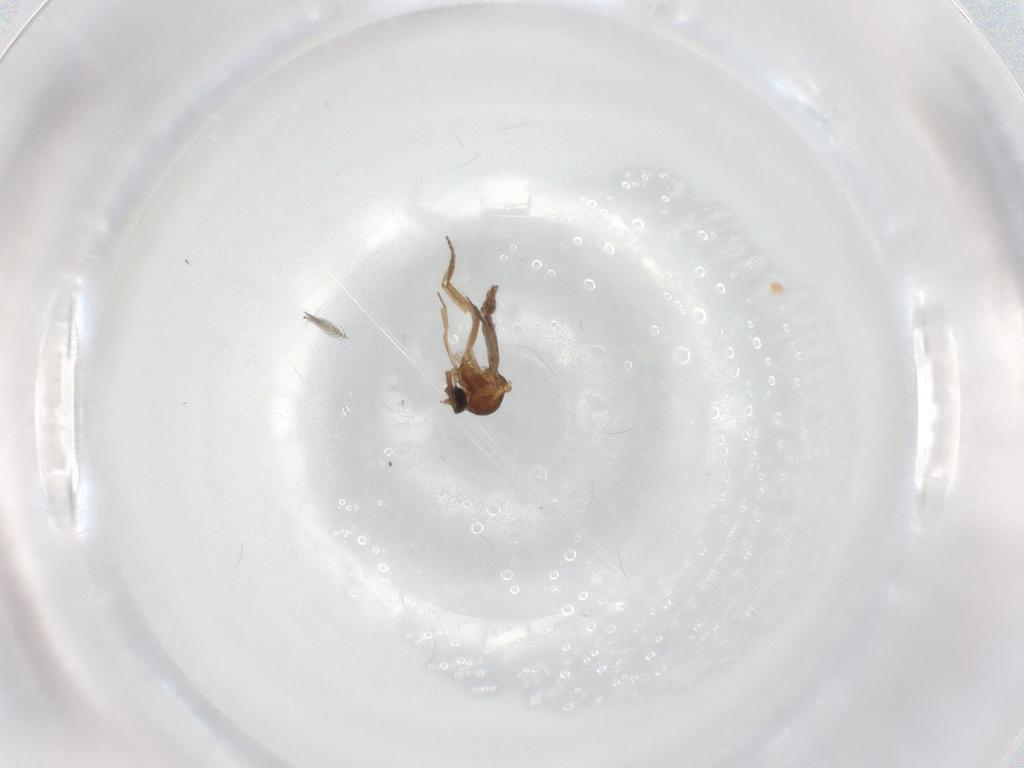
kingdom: Animalia
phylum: Arthropoda
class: Insecta
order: Diptera
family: Ceratopogonidae
